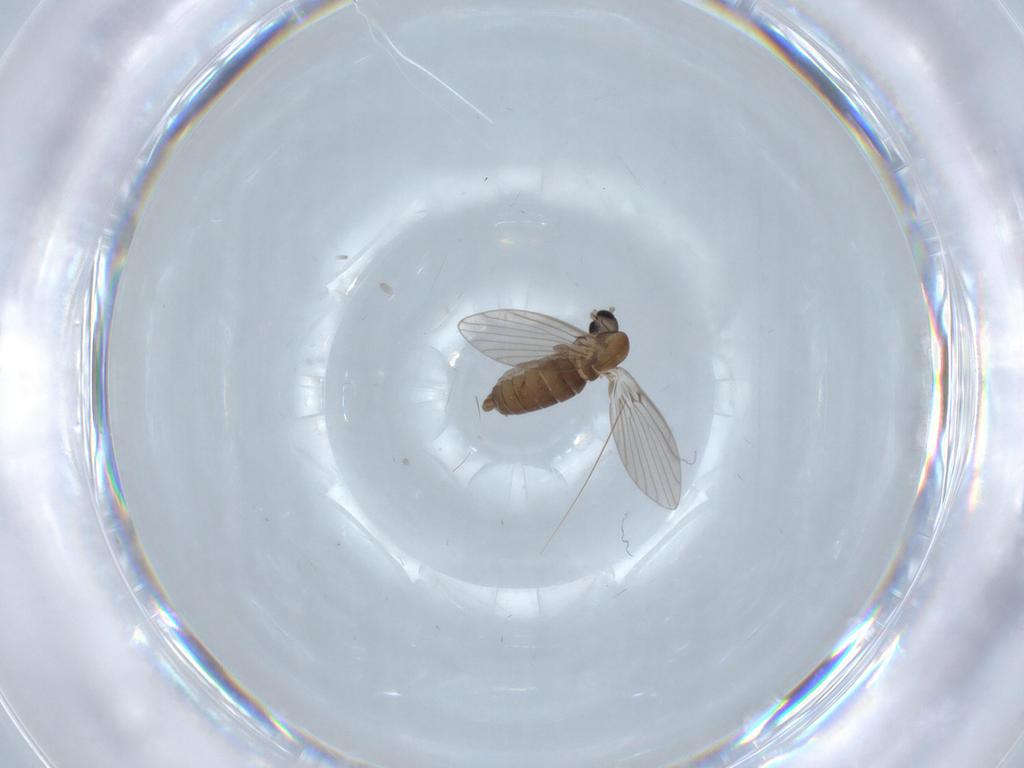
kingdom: Animalia
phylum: Arthropoda
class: Insecta
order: Diptera
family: Psychodidae
